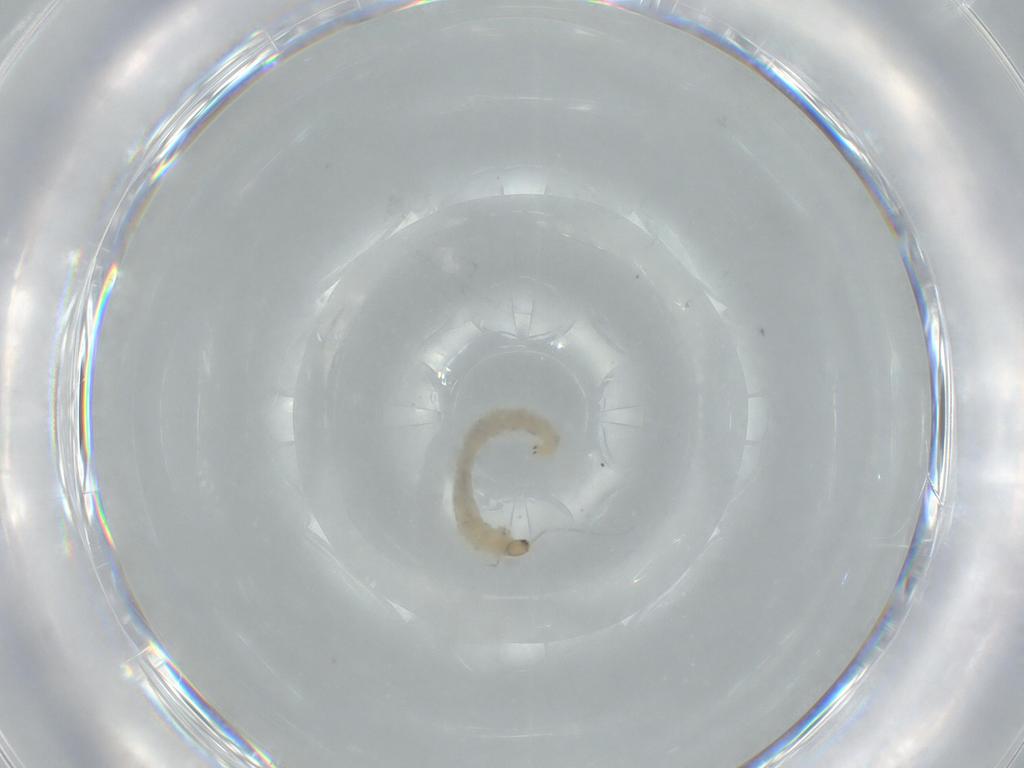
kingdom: Animalia
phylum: Arthropoda
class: Insecta
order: Diptera
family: Chironomidae
